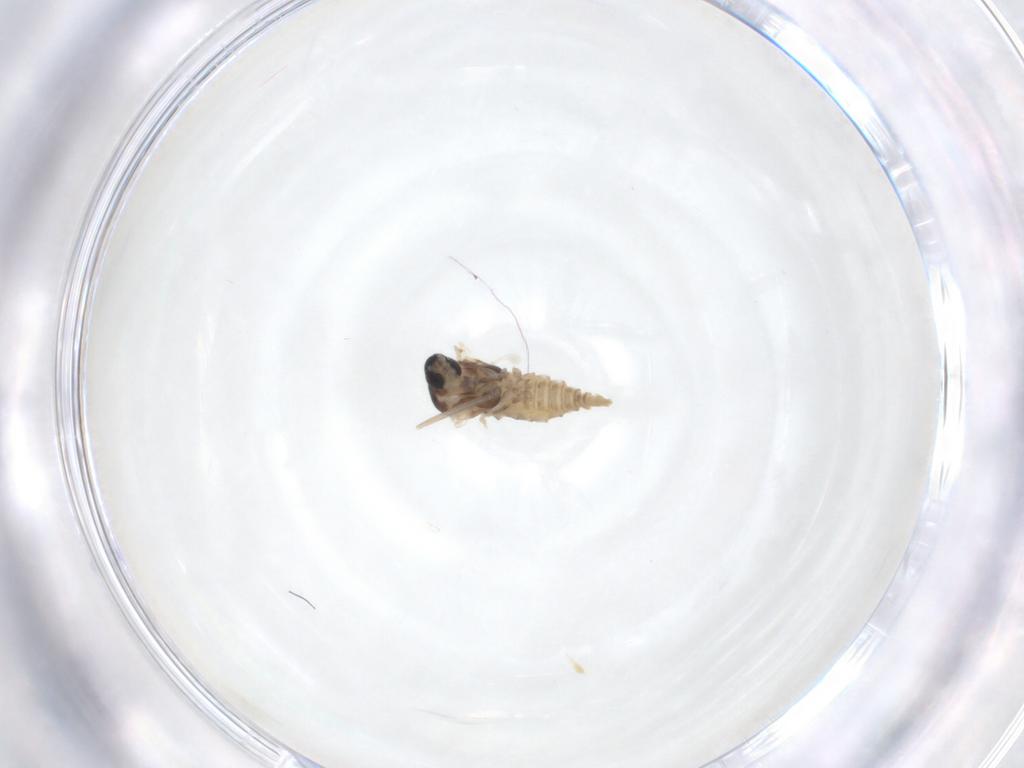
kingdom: Animalia
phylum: Arthropoda
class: Insecta
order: Diptera
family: Cecidomyiidae
